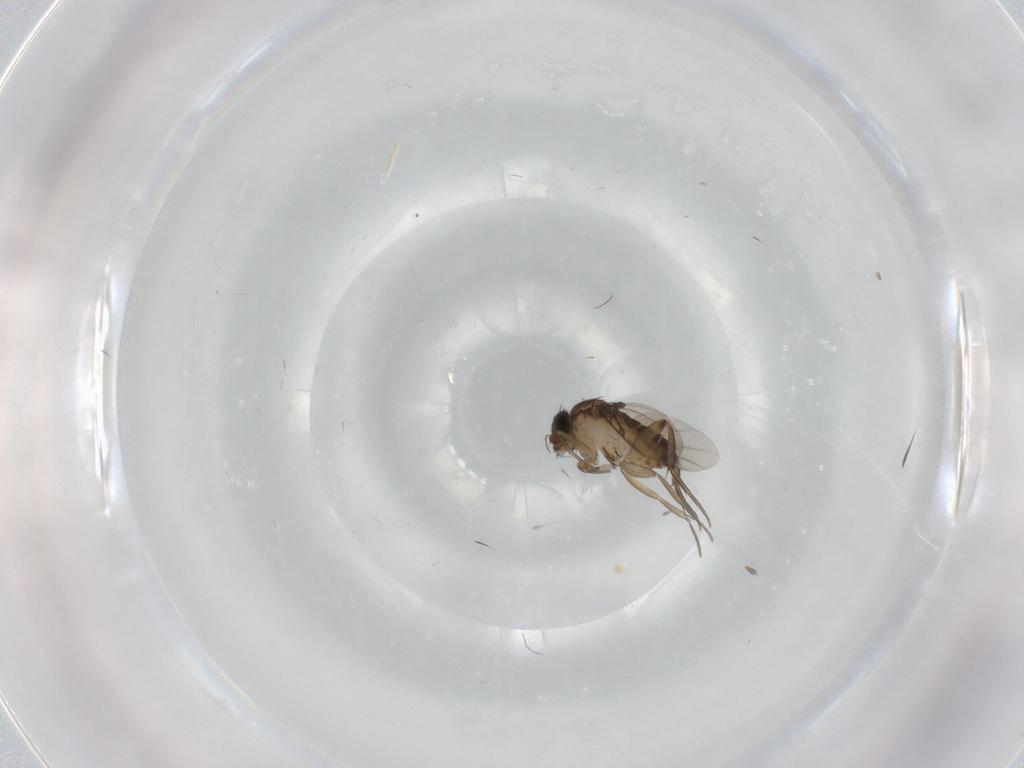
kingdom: Animalia
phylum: Arthropoda
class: Insecta
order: Diptera
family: Phoridae
